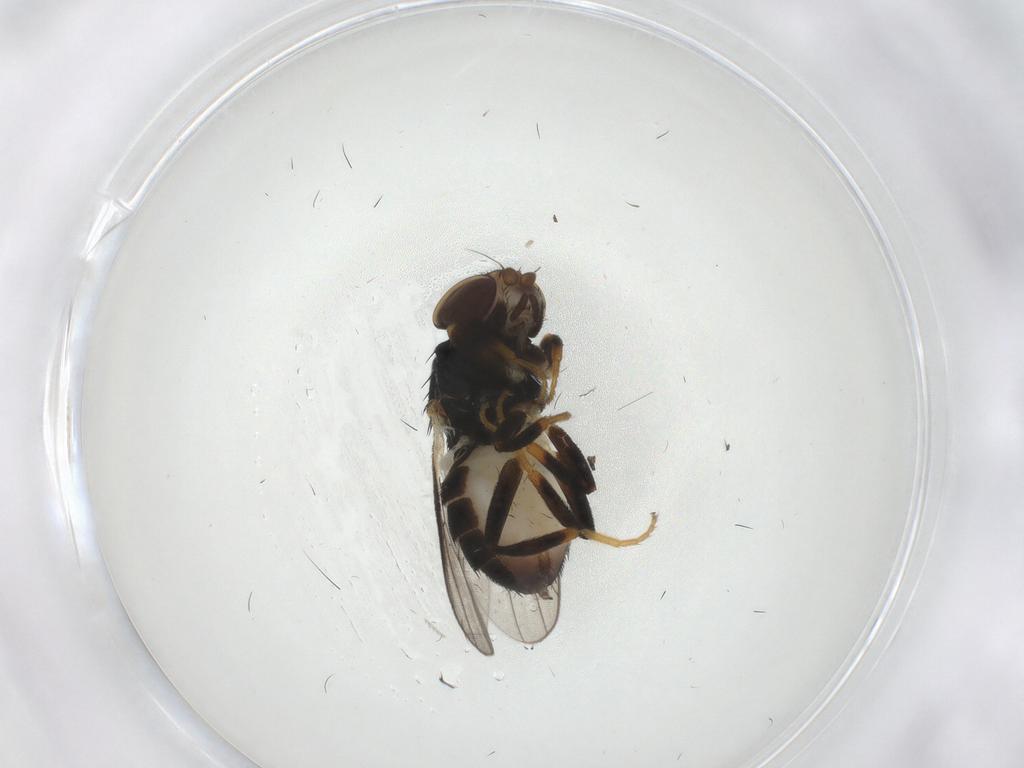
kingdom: Animalia
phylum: Arthropoda
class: Insecta
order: Diptera
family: Chloropidae
